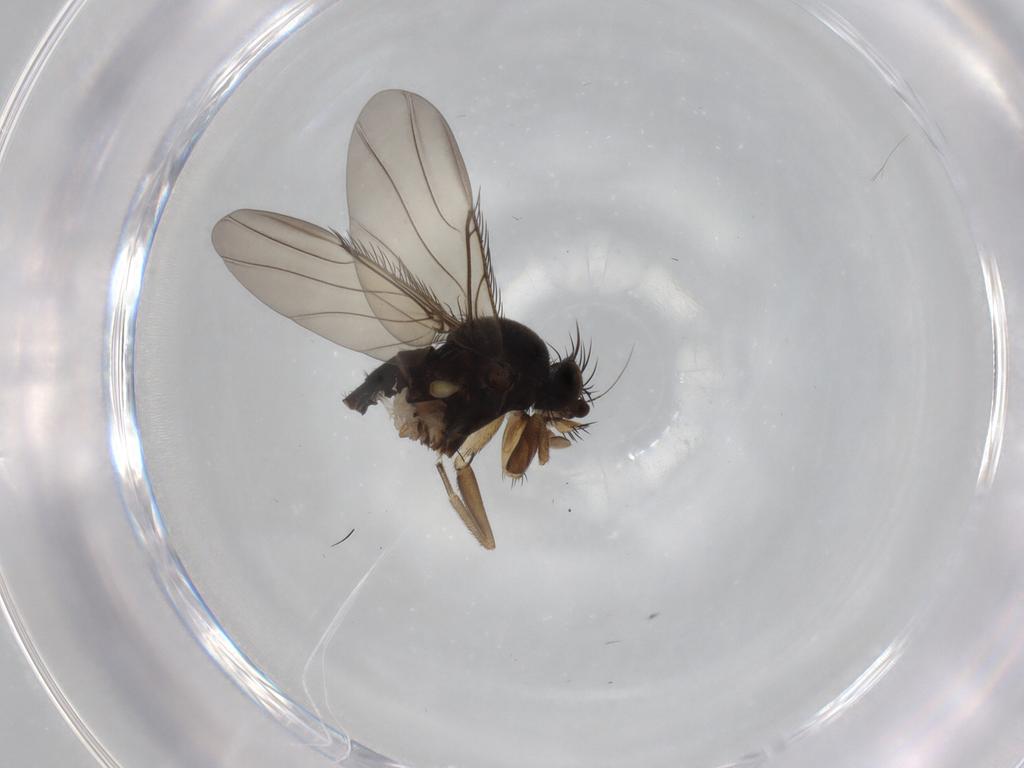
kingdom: Animalia
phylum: Arthropoda
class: Insecta
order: Diptera
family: Phoridae
